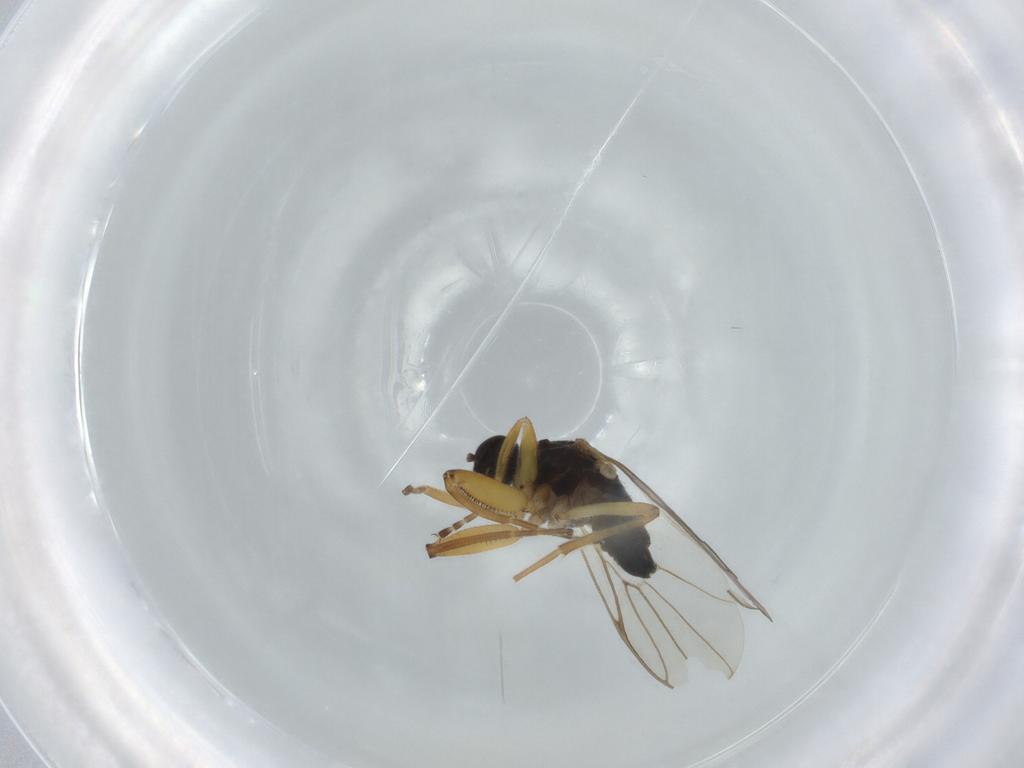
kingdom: Animalia
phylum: Arthropoda
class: Insecta
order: Diptera
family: Hybotidae
